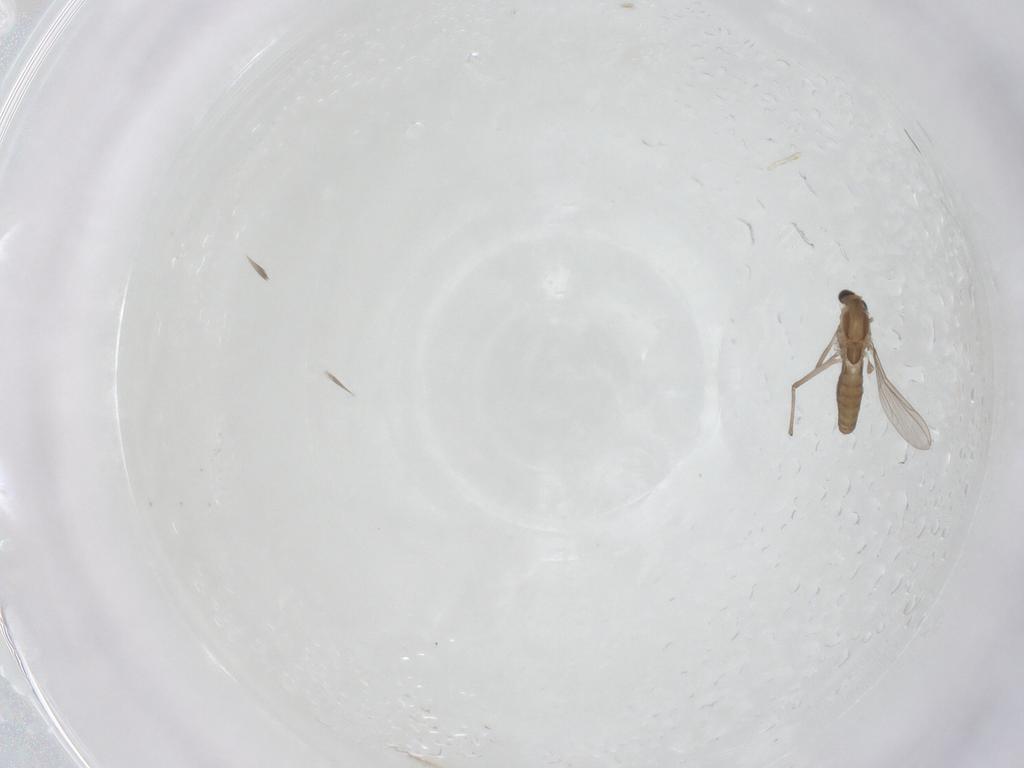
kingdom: Animalia
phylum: Arthropoda
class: Insecta
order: Diptera
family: Chironomidae
